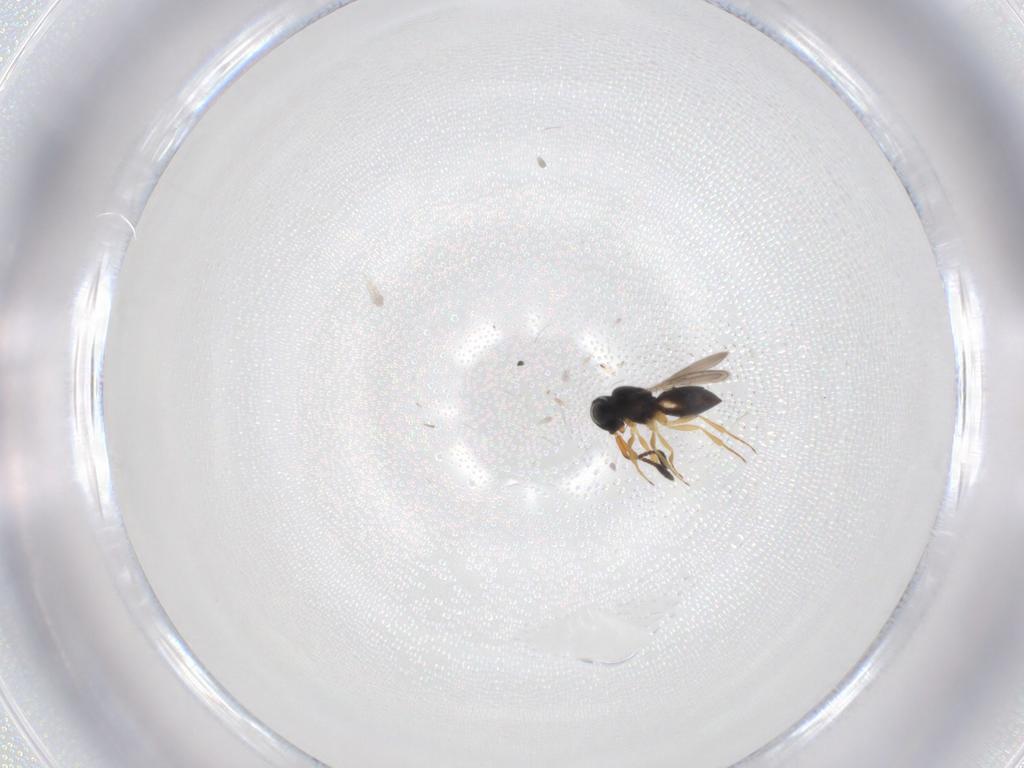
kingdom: Animalia
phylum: Arthropoda
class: Insecta
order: Hymenoptera
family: Scelionidae
